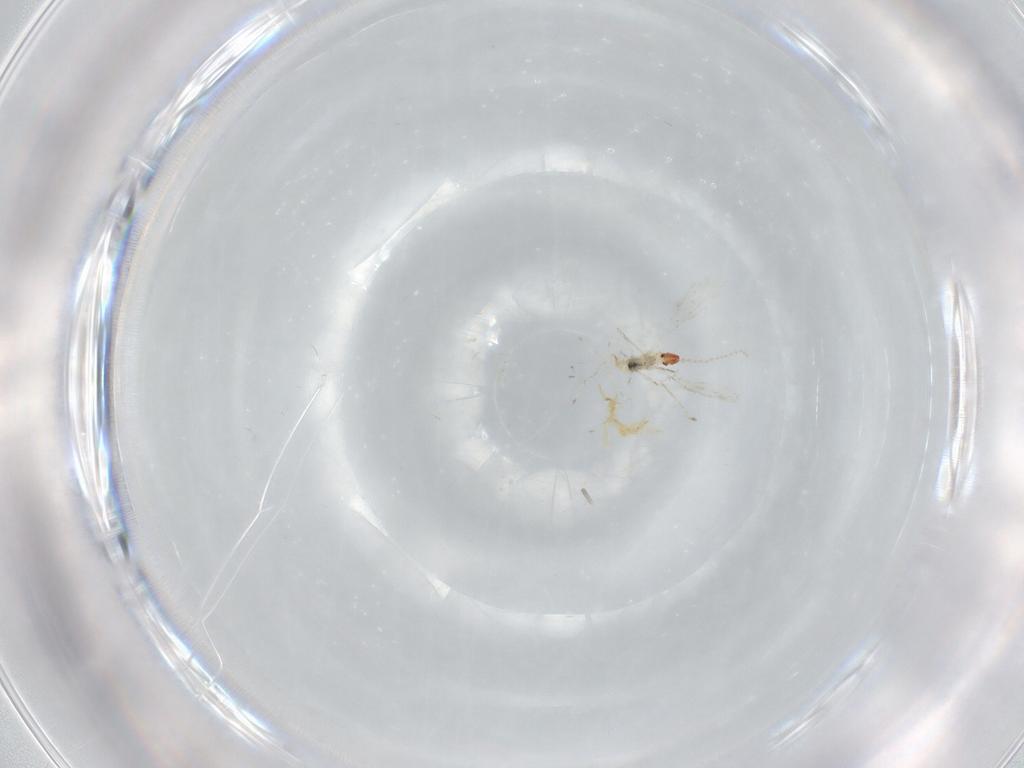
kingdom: Animalia
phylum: Arthropoda
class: Insecta
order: Diptera
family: Cecidomyiidae
